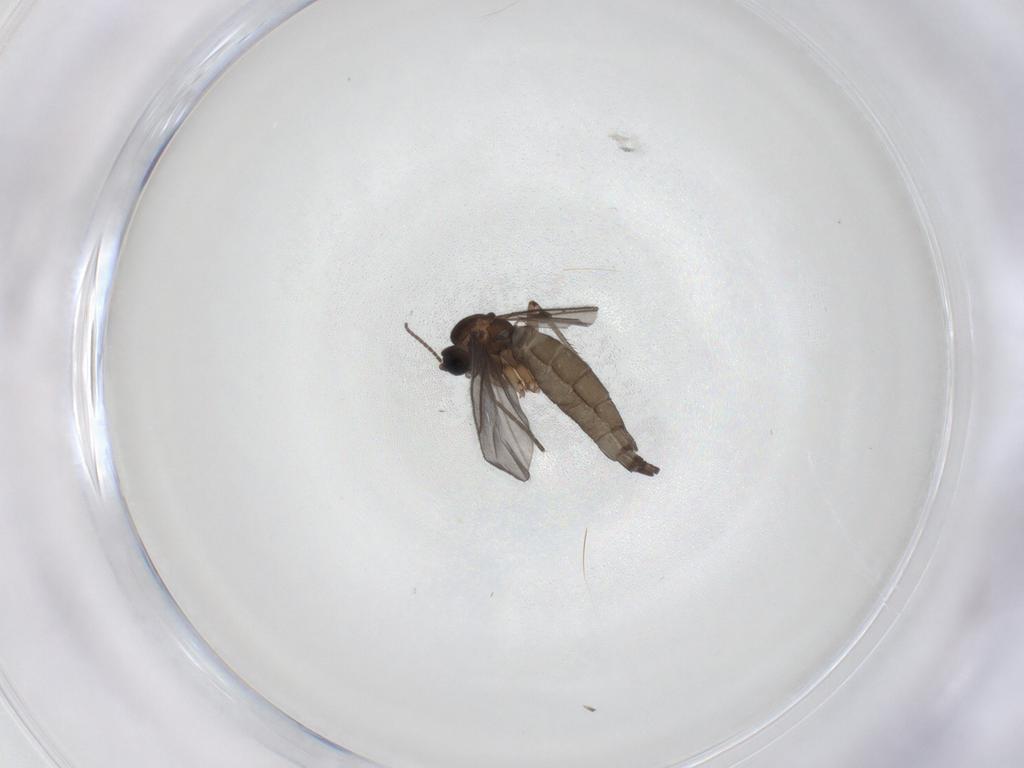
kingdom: Animalia
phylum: Arthropoda
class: Insecta
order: Diptera
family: Sciaridae
